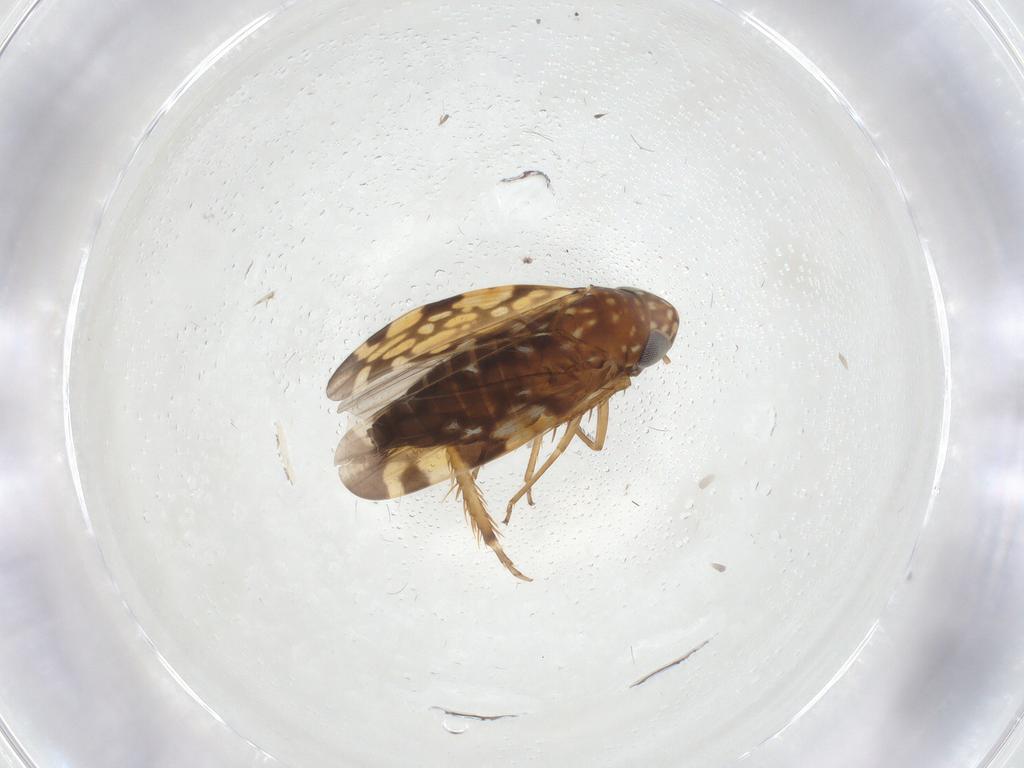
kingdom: Animalia
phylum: Arthropoda
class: Insecta
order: Hemiptera
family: Cicadellidae
